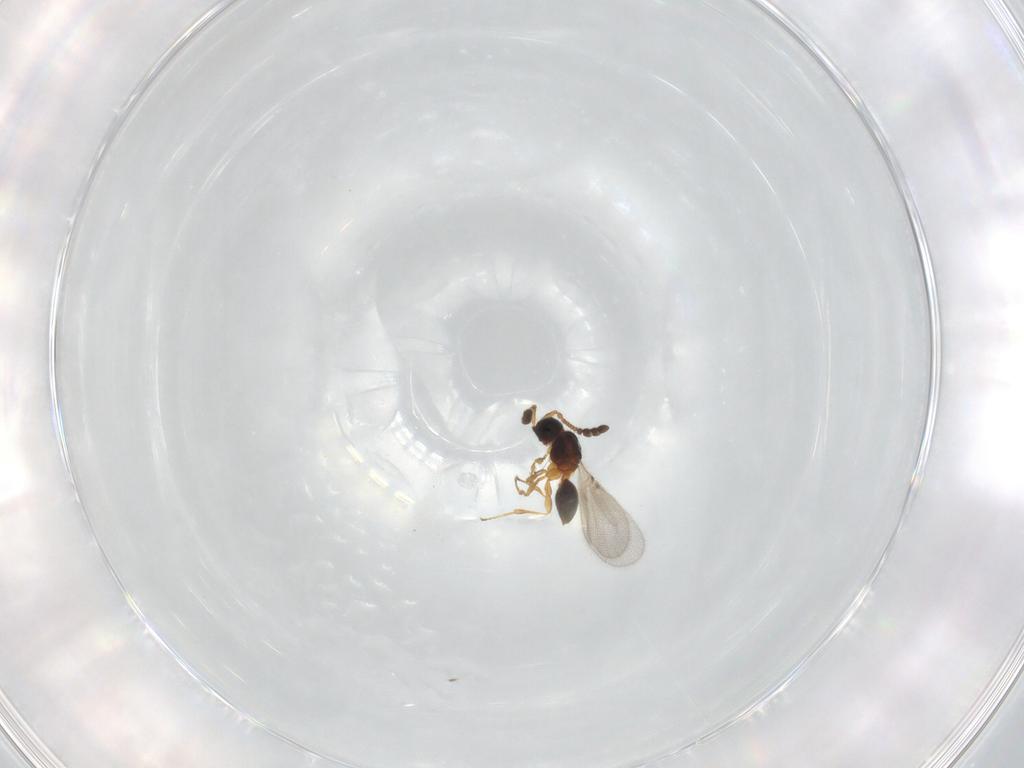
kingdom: Animalia
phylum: Arthropoda
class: Insecta
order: Hymenoptera
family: Diapriidae
